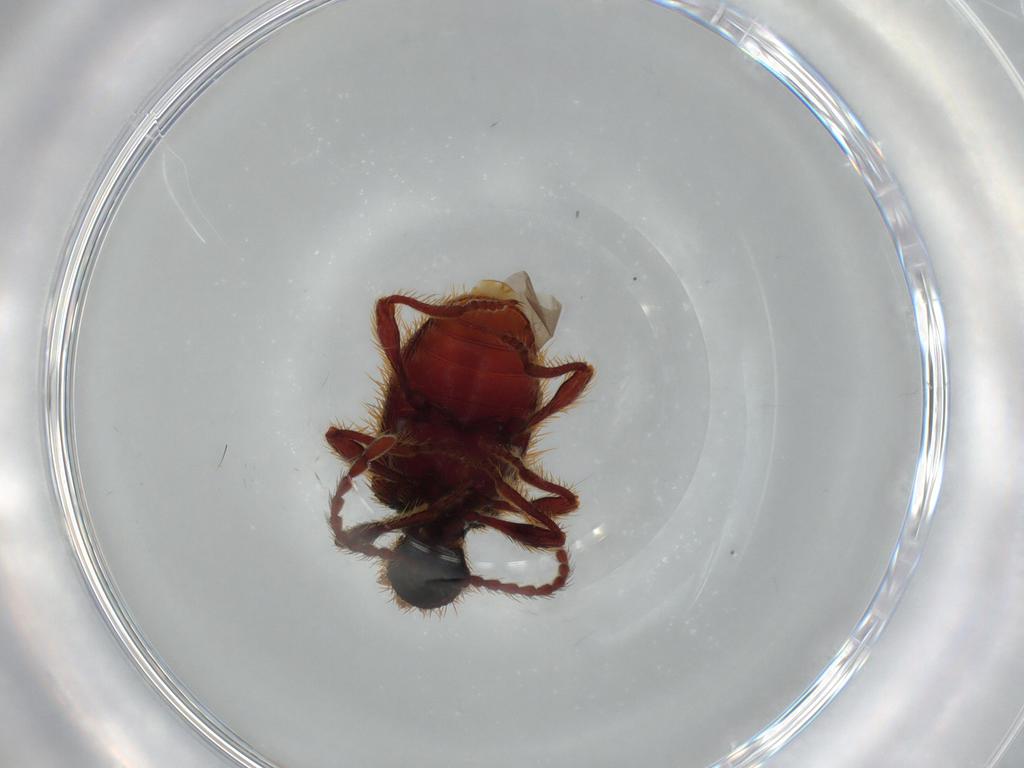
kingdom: Animalia
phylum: Arthropoda
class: Insecta
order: Coleoptera
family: Ptinidae
